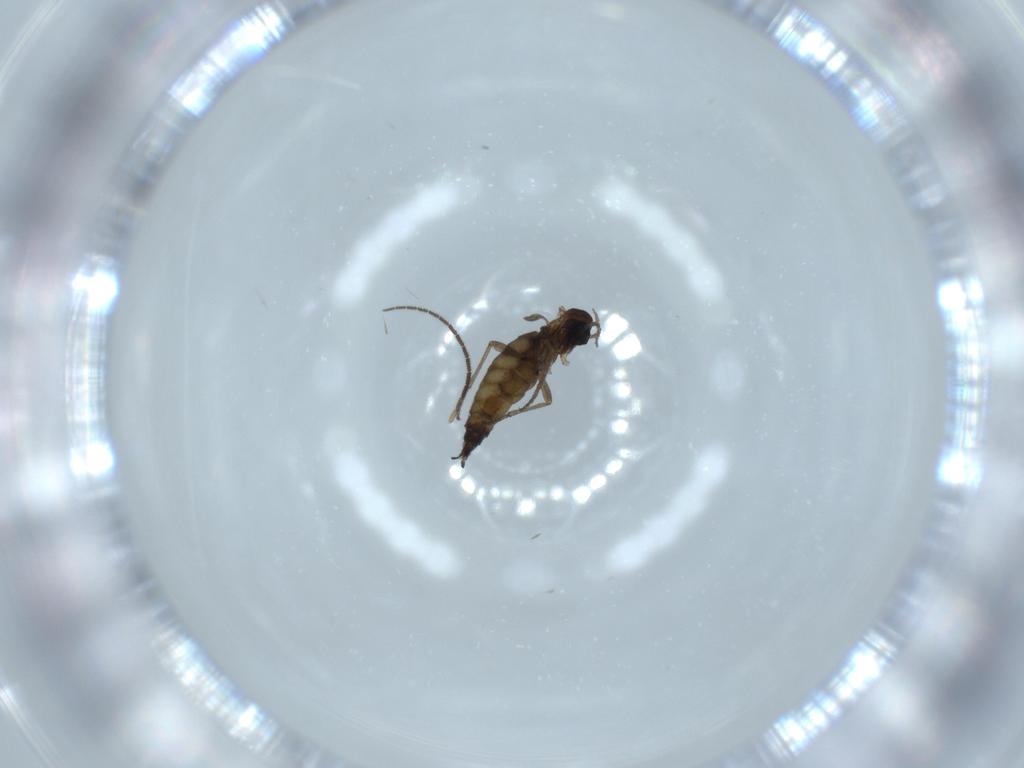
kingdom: Animalia
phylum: Arthropoda
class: Insecta
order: Diptera
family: Sciaridae
